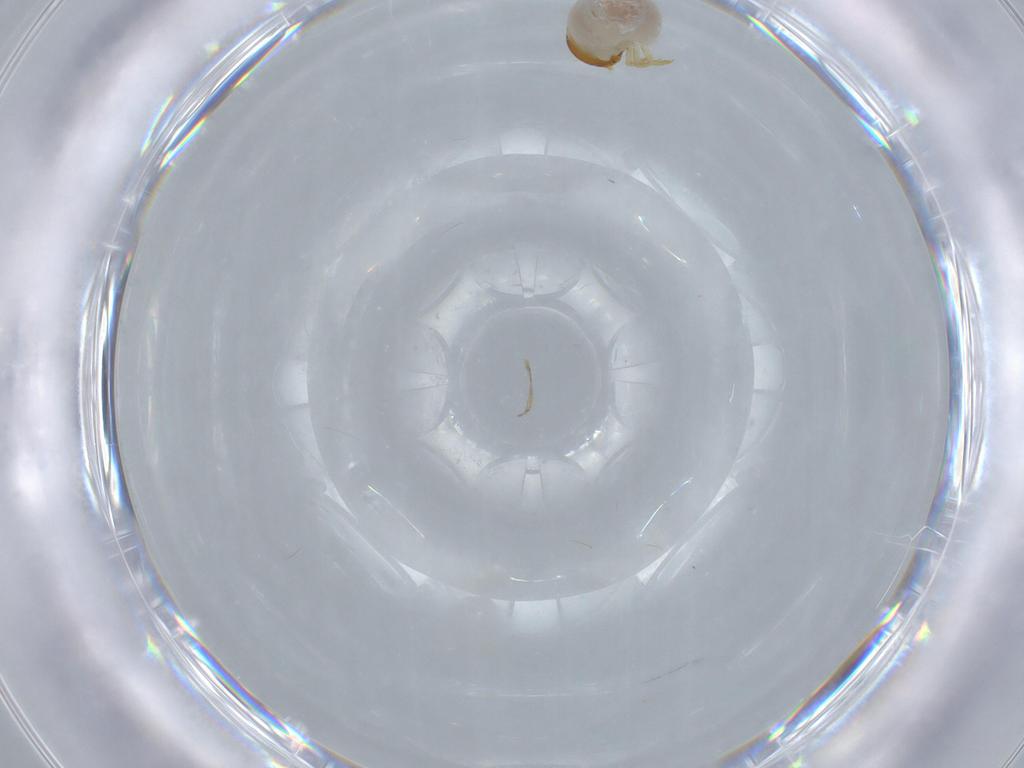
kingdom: Animalia
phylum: Arthropoda
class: Insecta
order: Coleoptera
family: Chrysomelidae
